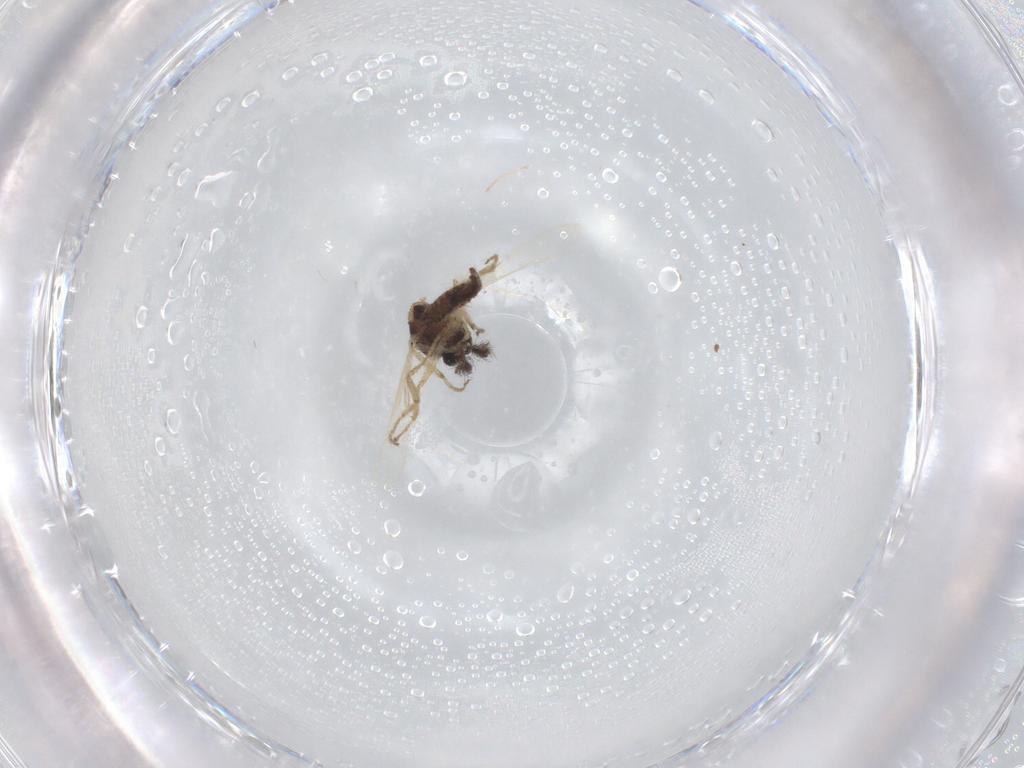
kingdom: Animalia
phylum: Arthropoda
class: Insecta
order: Diptera
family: Ceratopogonidae
